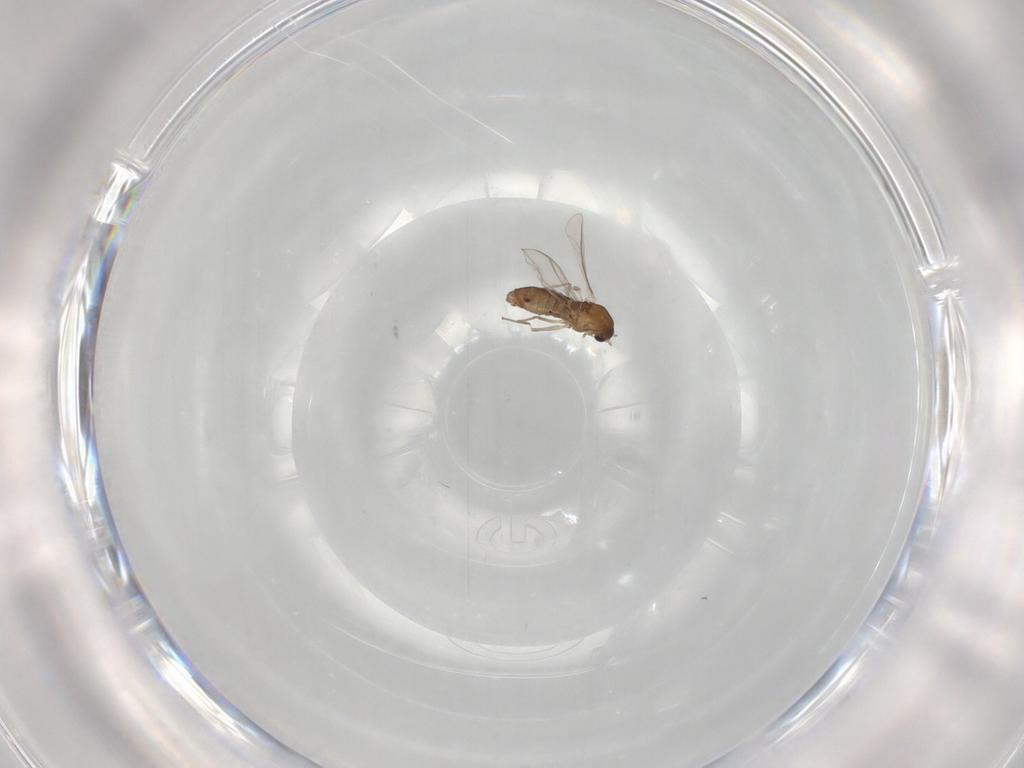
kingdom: Animalia
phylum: Arthropoda
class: Insecta
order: Diptera
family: Chironomidae
